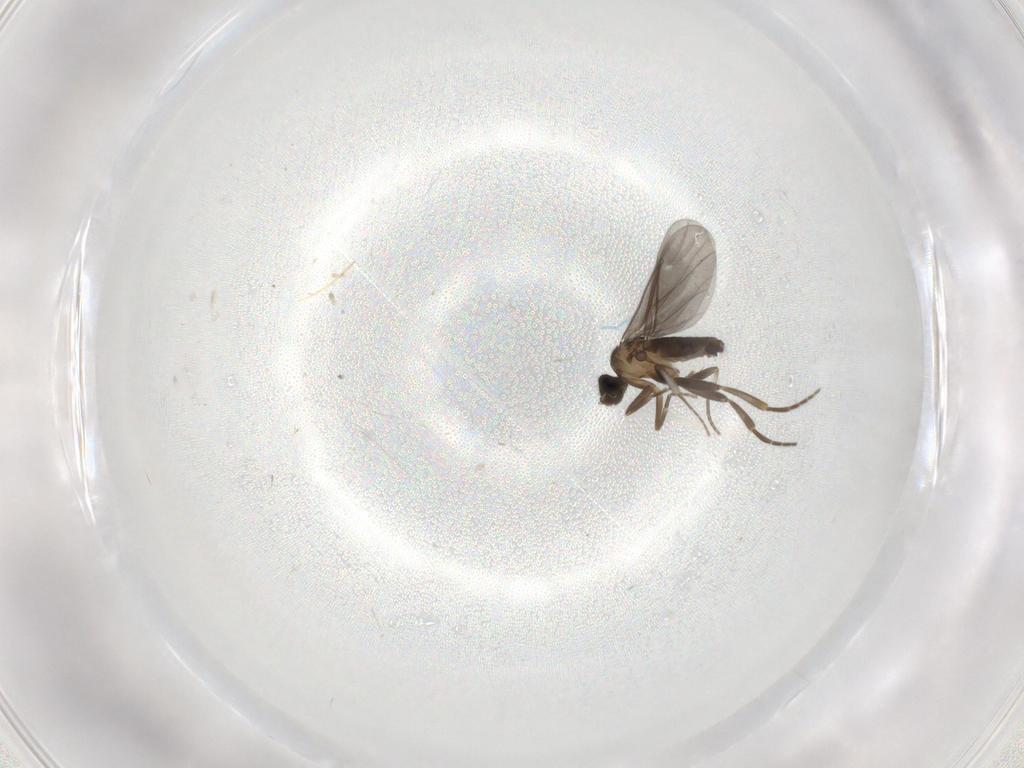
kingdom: Animalia
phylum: Arthropoda
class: Insecta
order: Diptera
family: Phoridae
